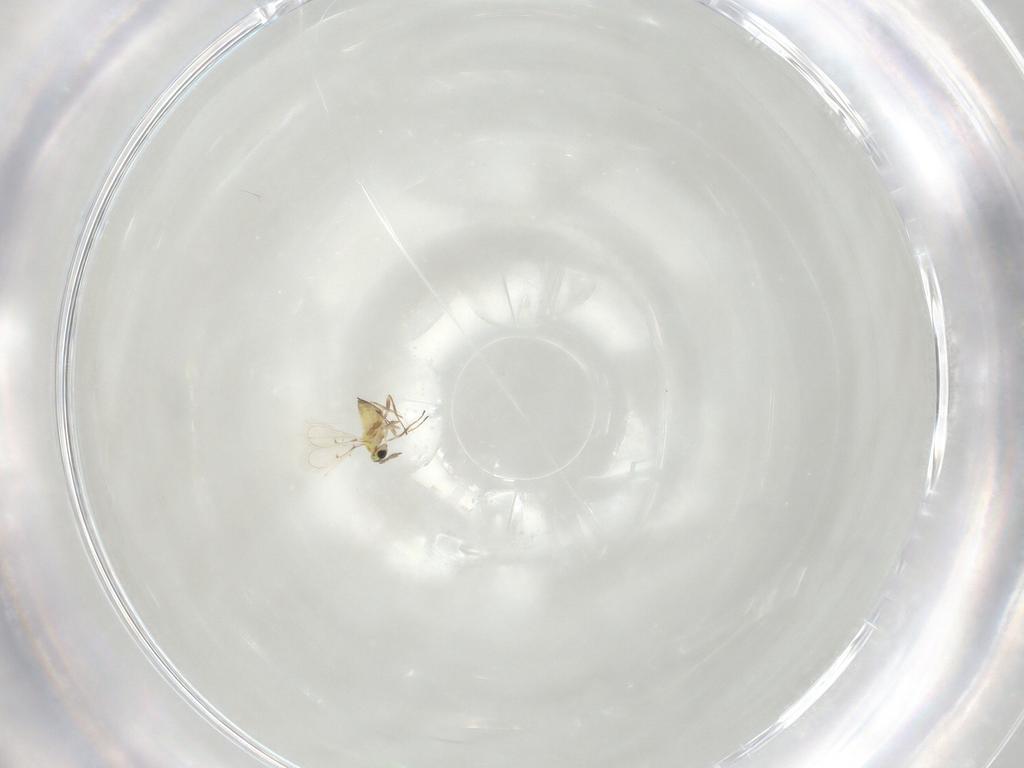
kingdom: Animalia
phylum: Arthropoda
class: Insecta
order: Hymenoptera
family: Trichogrammatidae
